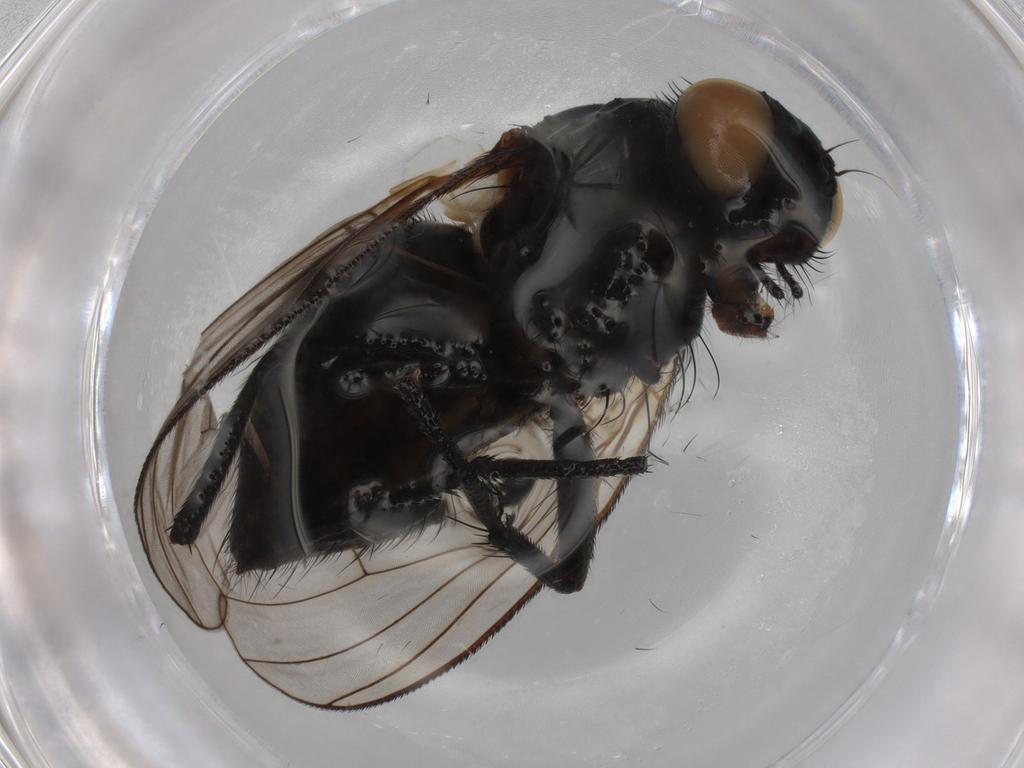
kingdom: Animalia
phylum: Arthropoda
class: Insecta
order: Diptera
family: Muscidae
